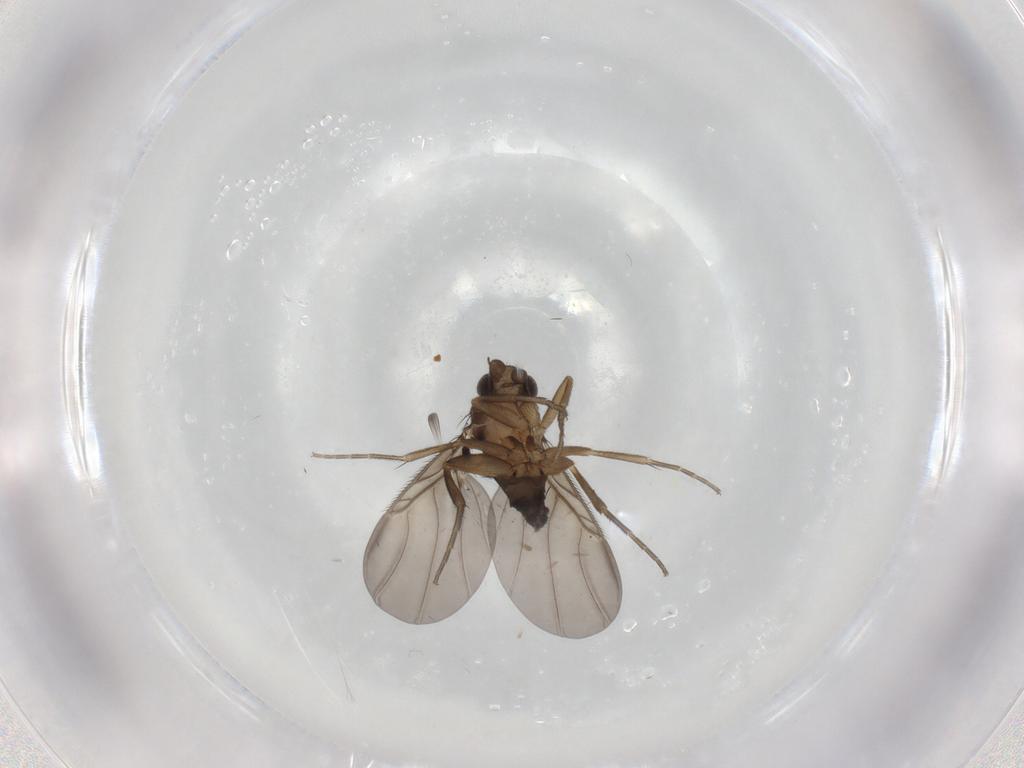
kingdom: Animalia
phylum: Arthropoda
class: Insecta
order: Diptera
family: Phoridae
